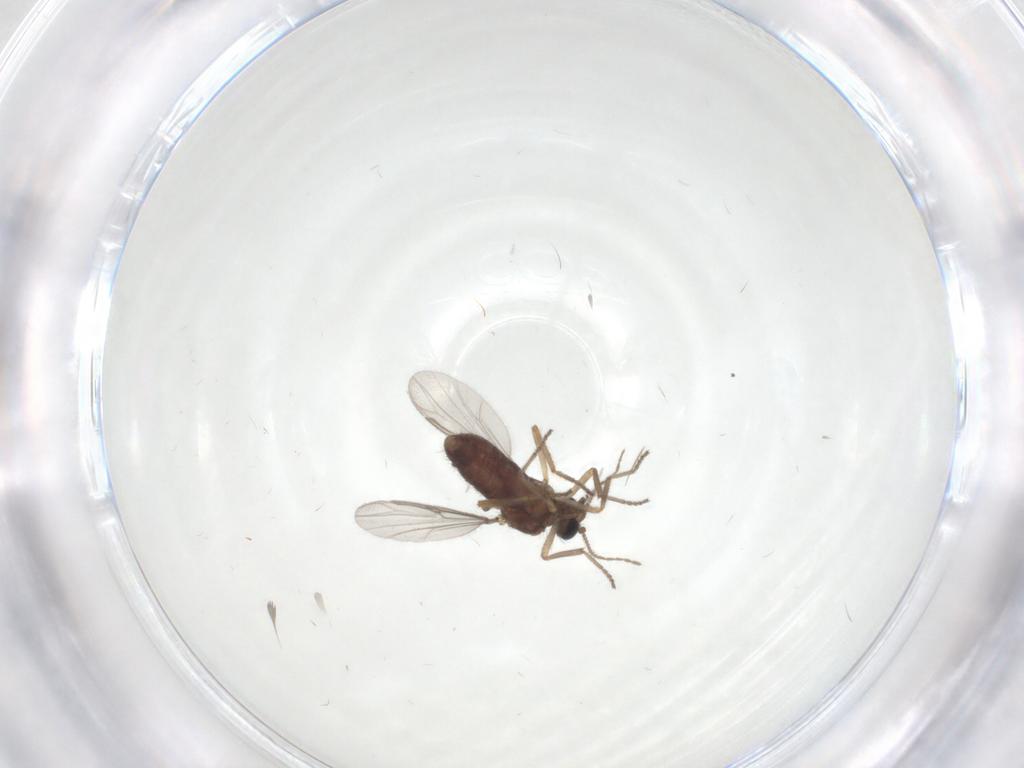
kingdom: Animalia
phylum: Arthropoda
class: Insecta
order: Diptera
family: Ceratopogonidae
